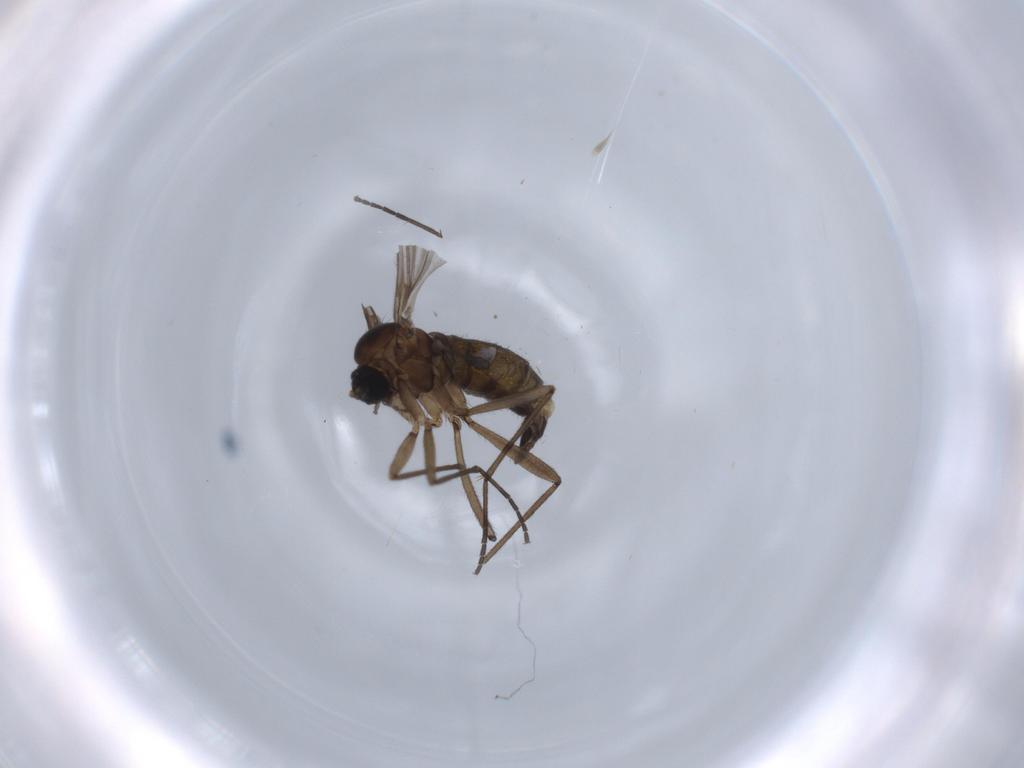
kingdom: Animalia
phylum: Arthropoda
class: Insecta
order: Diptera
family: Sciaridae
